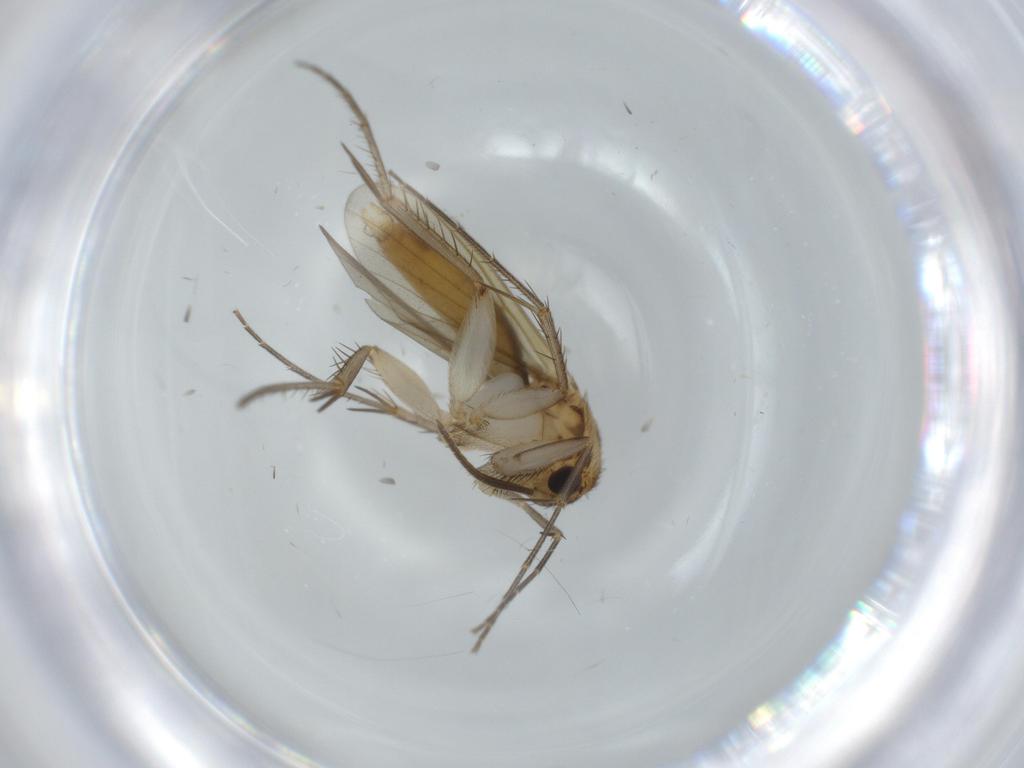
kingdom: Animalia
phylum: Arthropoda
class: Insecta
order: Diptera
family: Mycetophilidae
